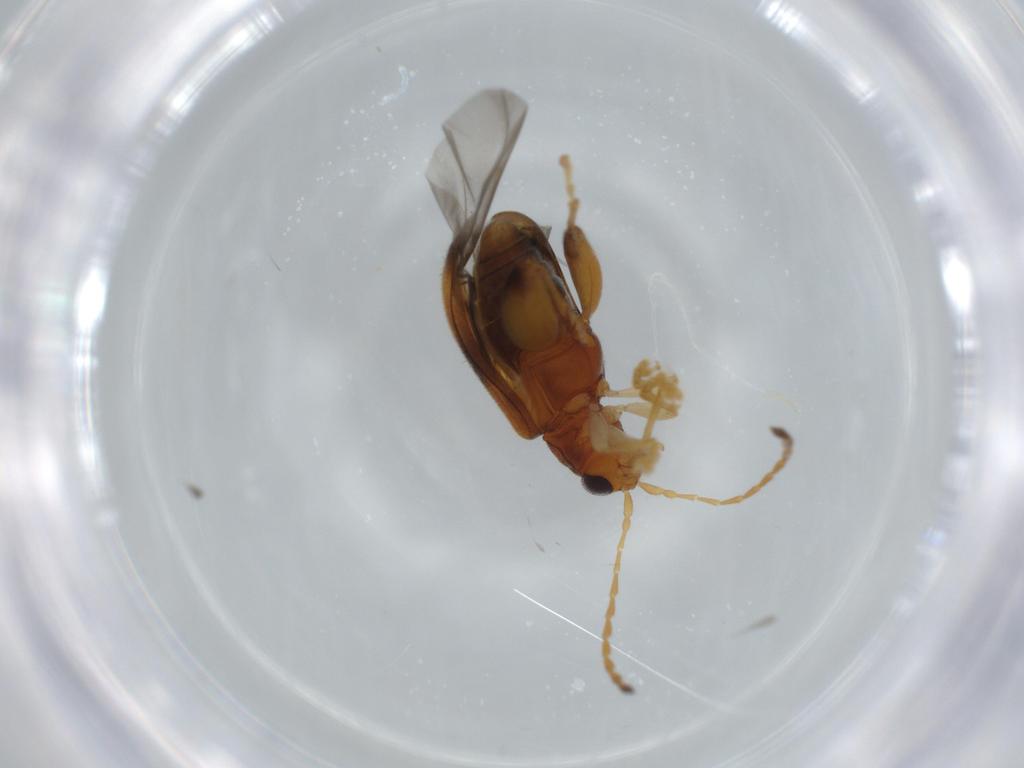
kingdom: Animalia
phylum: Arthropoda
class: Insecta
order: Coleoptera
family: Chrysomelidae
